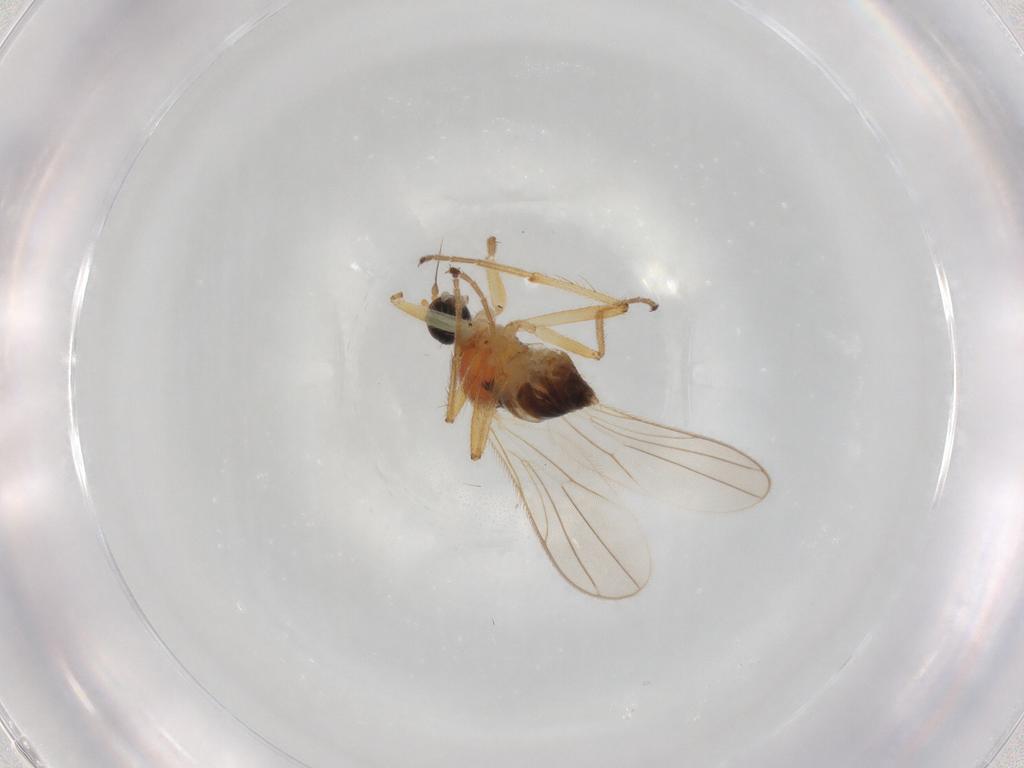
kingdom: Animalia
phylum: Arthropoda
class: Insecta
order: Diptera
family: Hybotidae
